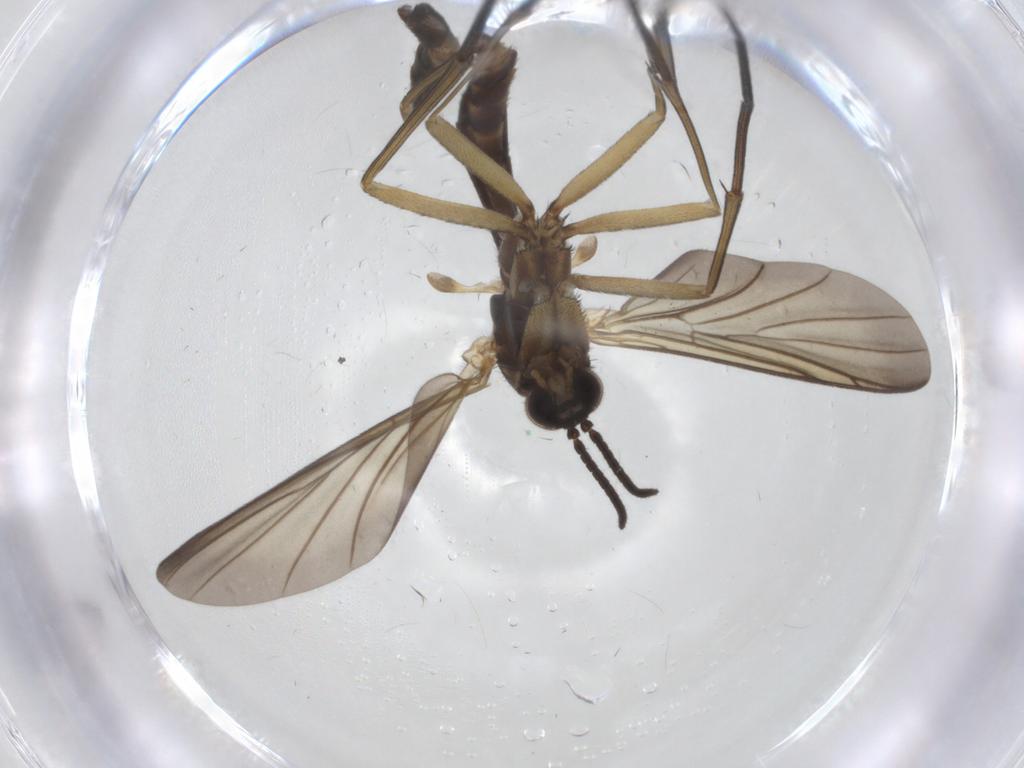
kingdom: Animalia
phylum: Arthropoda
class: Insecta
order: Diptera
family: Keroplatidae
